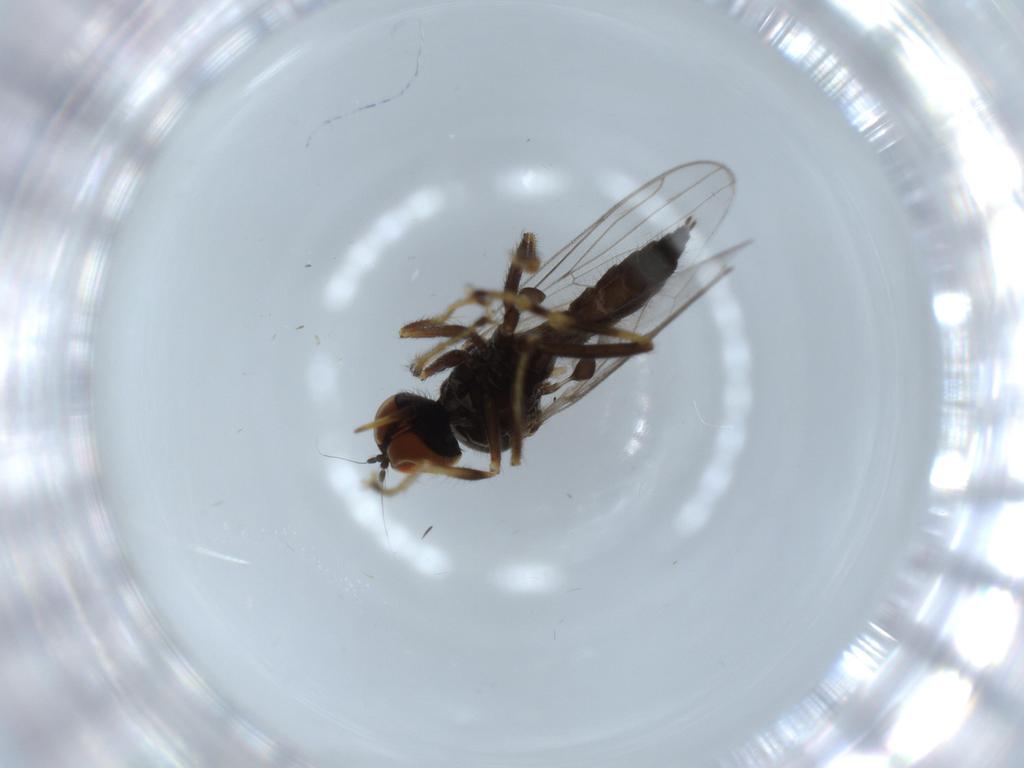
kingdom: Animalia
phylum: Arthropoda
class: Insecta
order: Diptera
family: Hybotidae
